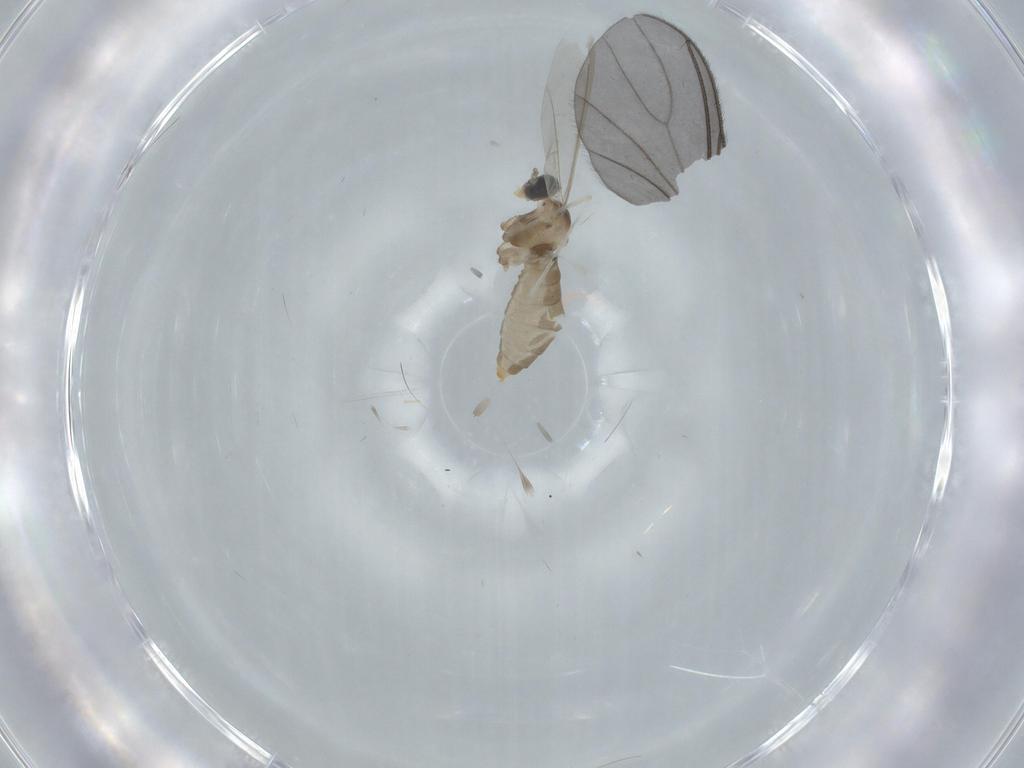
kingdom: Animalia
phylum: Arthropoda
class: Insecta
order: Diptera
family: Cecidomyiidae
